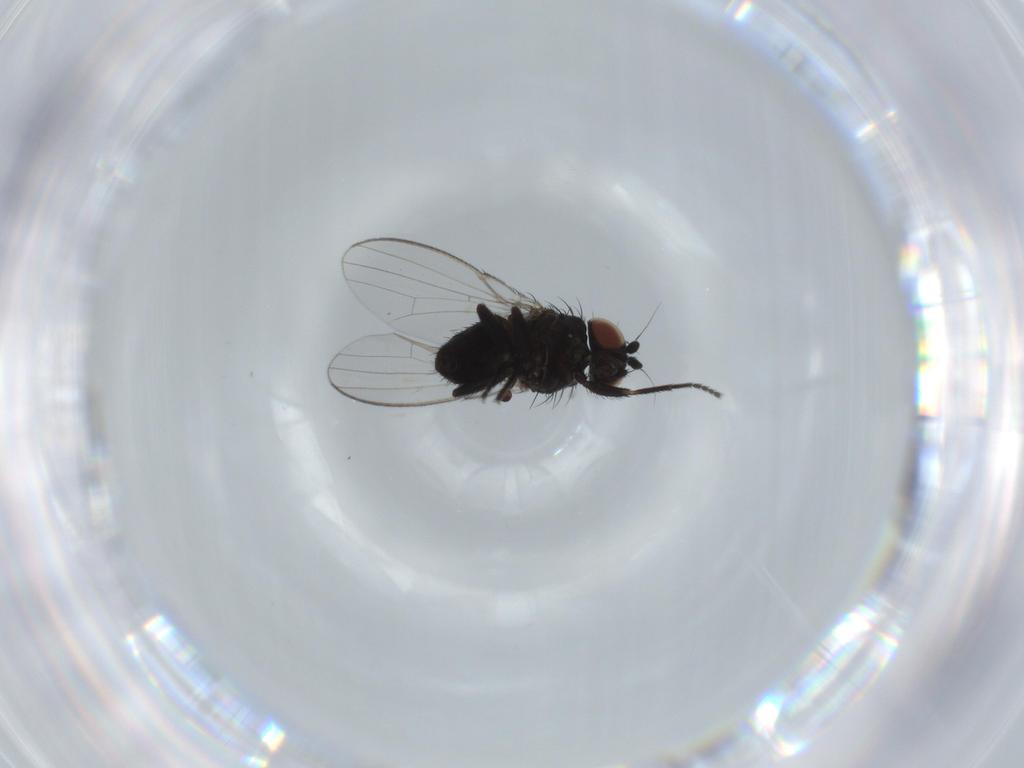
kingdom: Animalia
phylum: Arthropoda
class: Insecta
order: Diptera
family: Milichiidae
